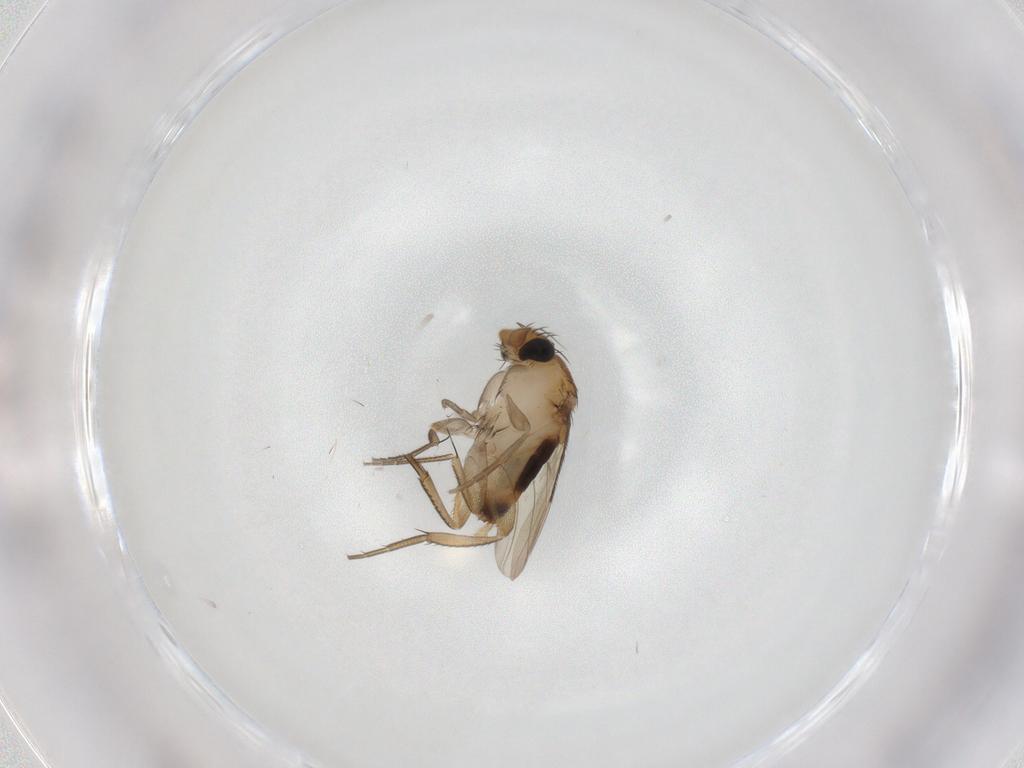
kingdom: Animalia
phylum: Arthropoda
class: Insecta
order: Diptera
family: Phoridae
